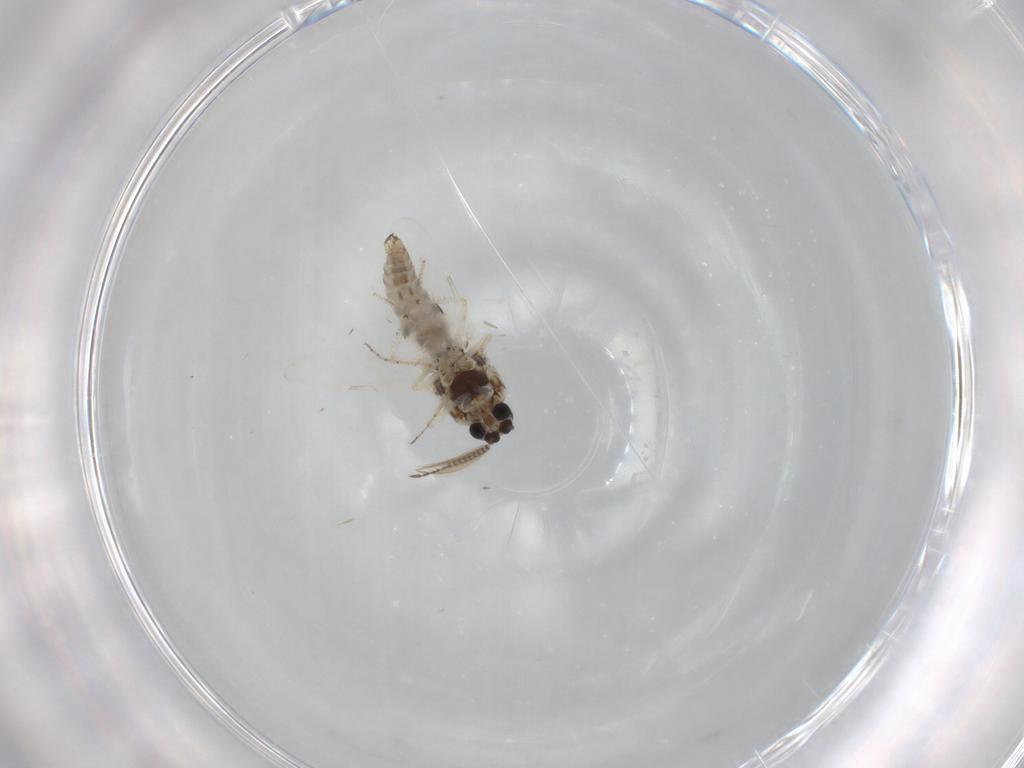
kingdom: Animalia
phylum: Arthropoda
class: Insecta
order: Diptera
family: Ceratopogonidae
